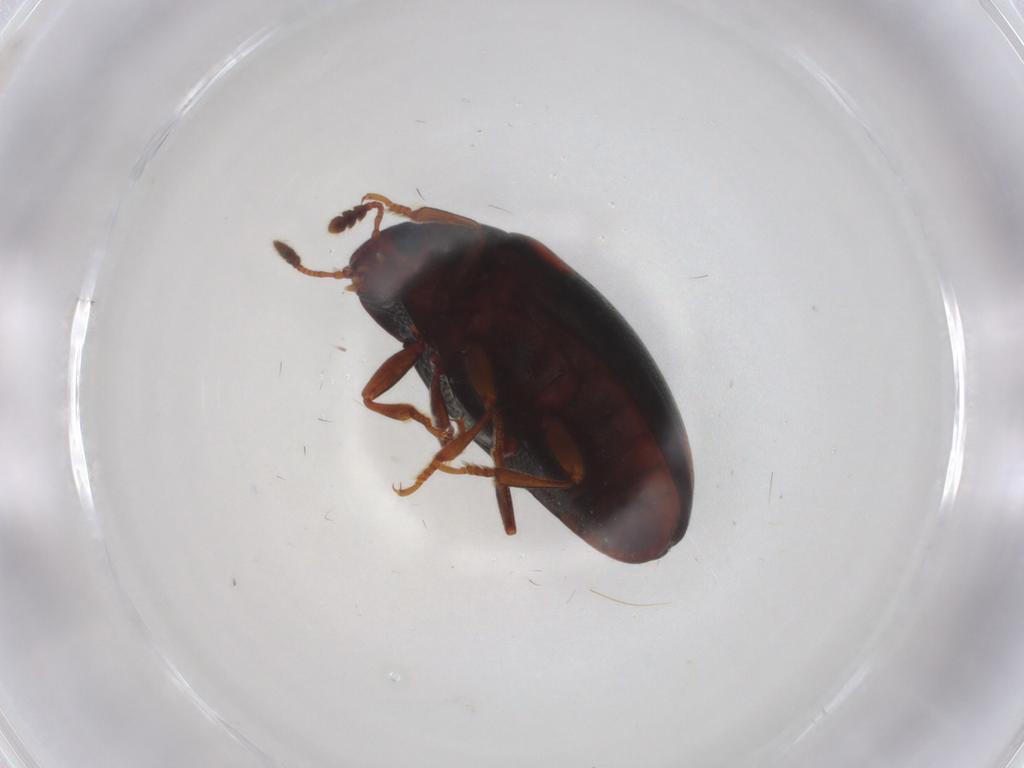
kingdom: Animalia
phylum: Arthropoda
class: Insecta
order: Coleoptera
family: Erotylidae
